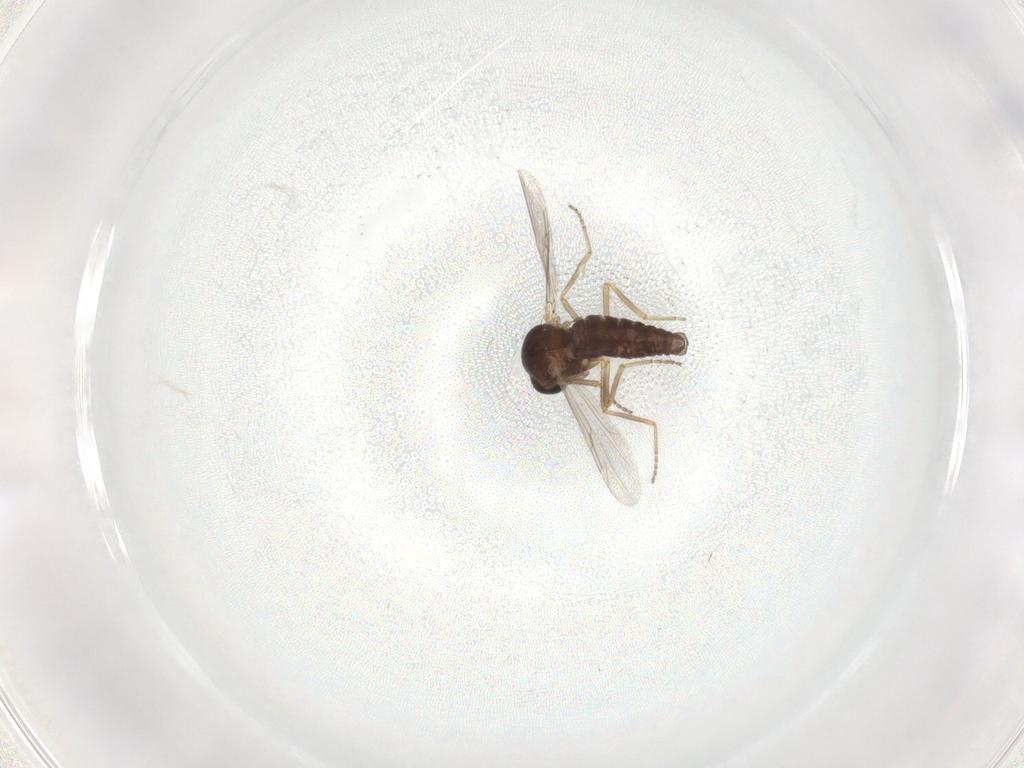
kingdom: Animalia
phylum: Arthropoda
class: Insecta
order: Diptera
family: Ceratopogonidae
